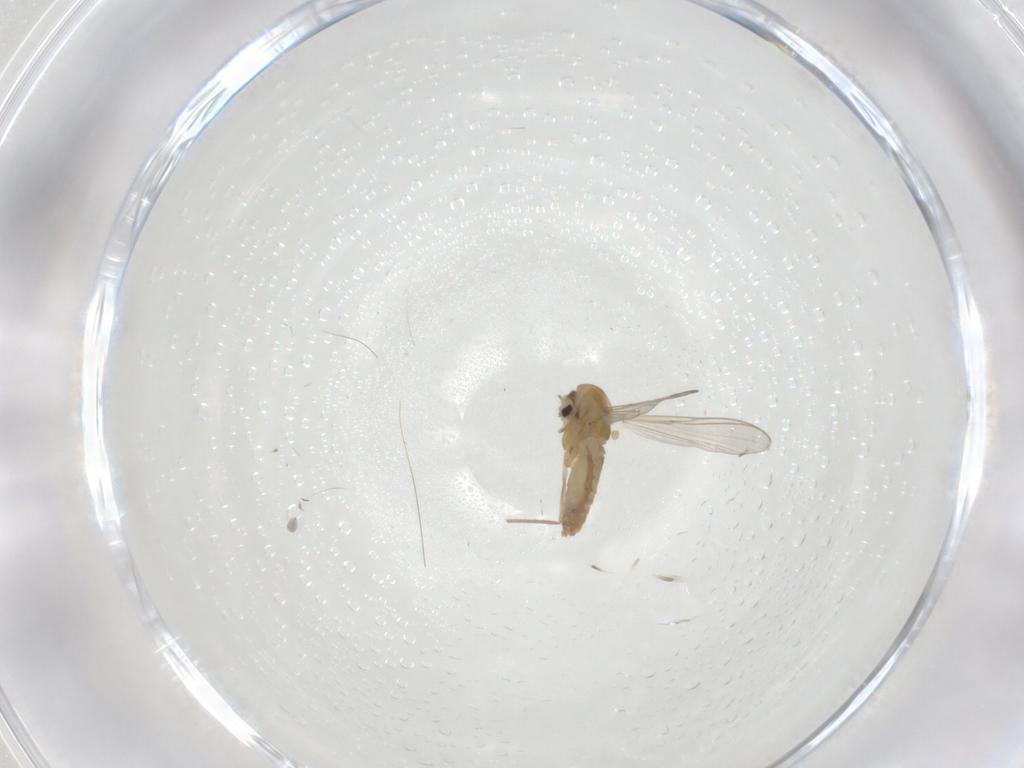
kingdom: Animalia
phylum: Arthropoda
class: Insecta
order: Diptera
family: Chironomidae
